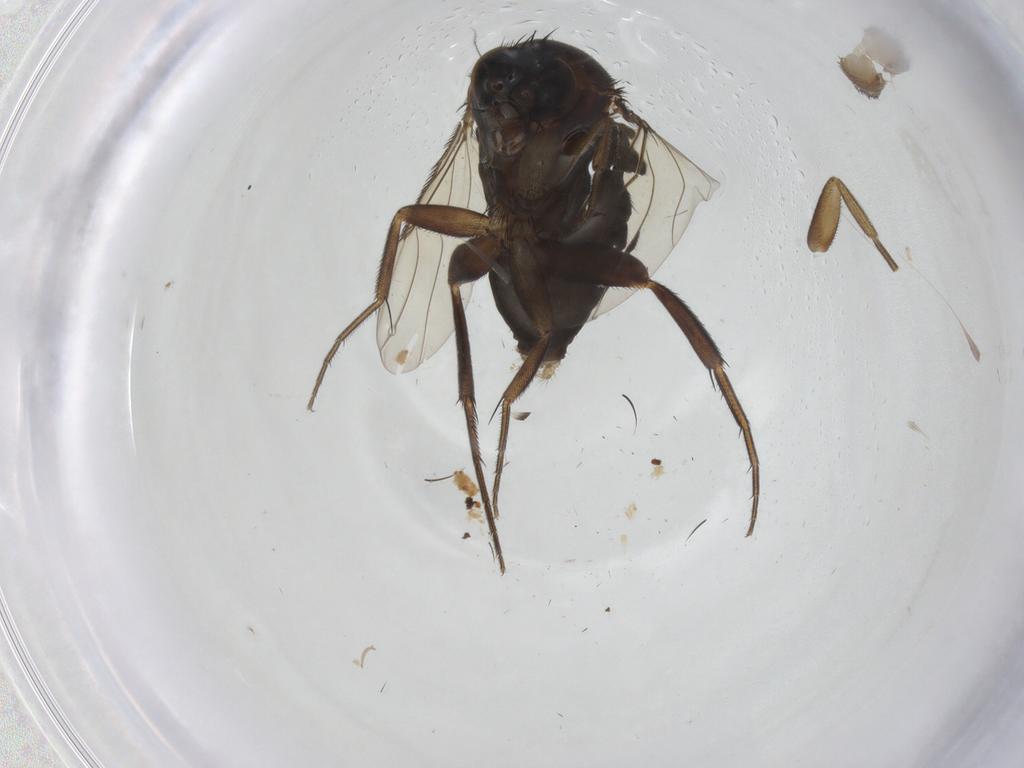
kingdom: Animalia
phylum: Arthropoda
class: Insecta
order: Diptera
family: Phoridae
